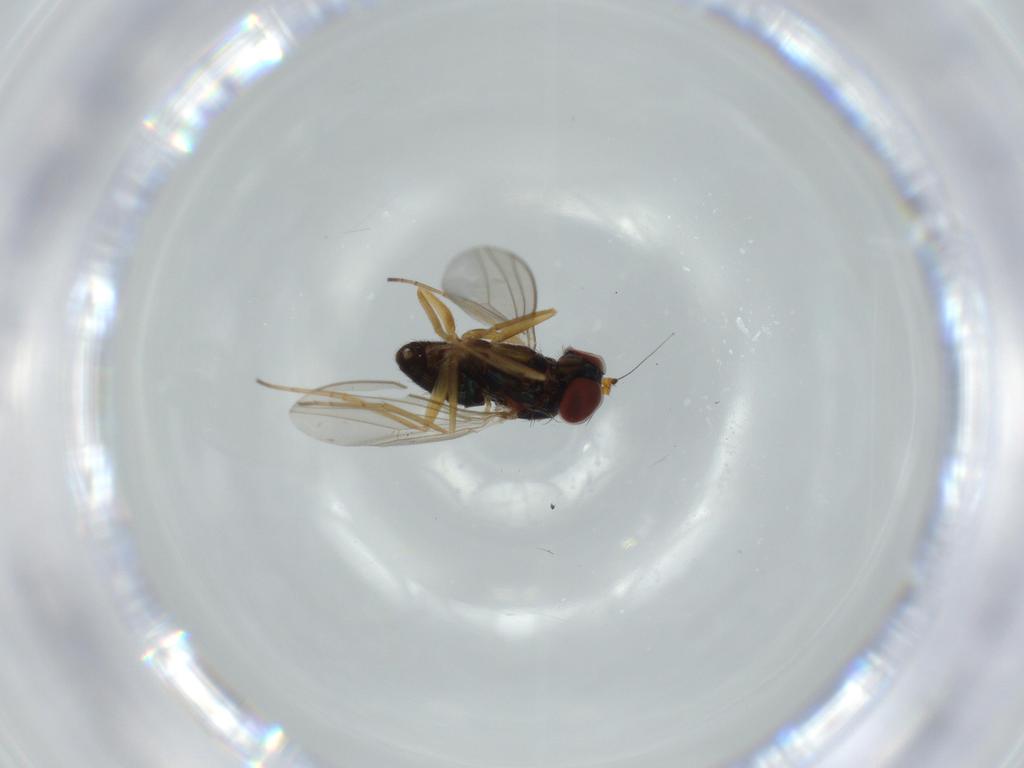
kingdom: Animalia
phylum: Arthropoda
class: Insecta
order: Diptera
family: Dolichopodidae
